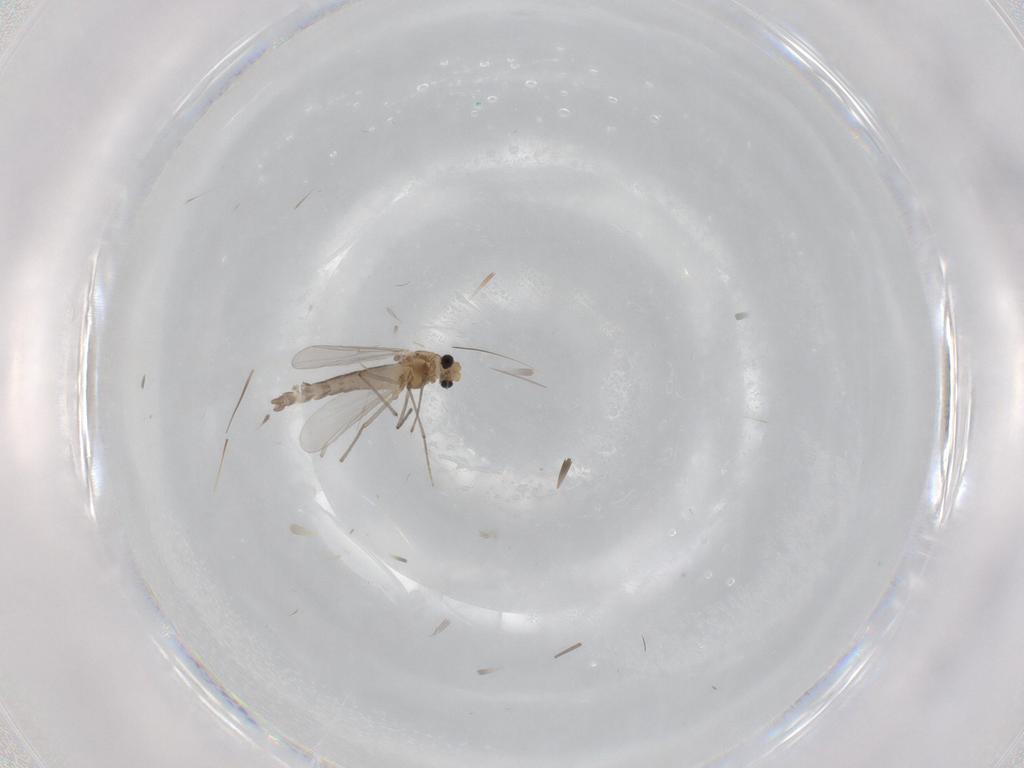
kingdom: Animalia
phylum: Arthropoda
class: Insecta
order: Diptera
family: Chironomidae
